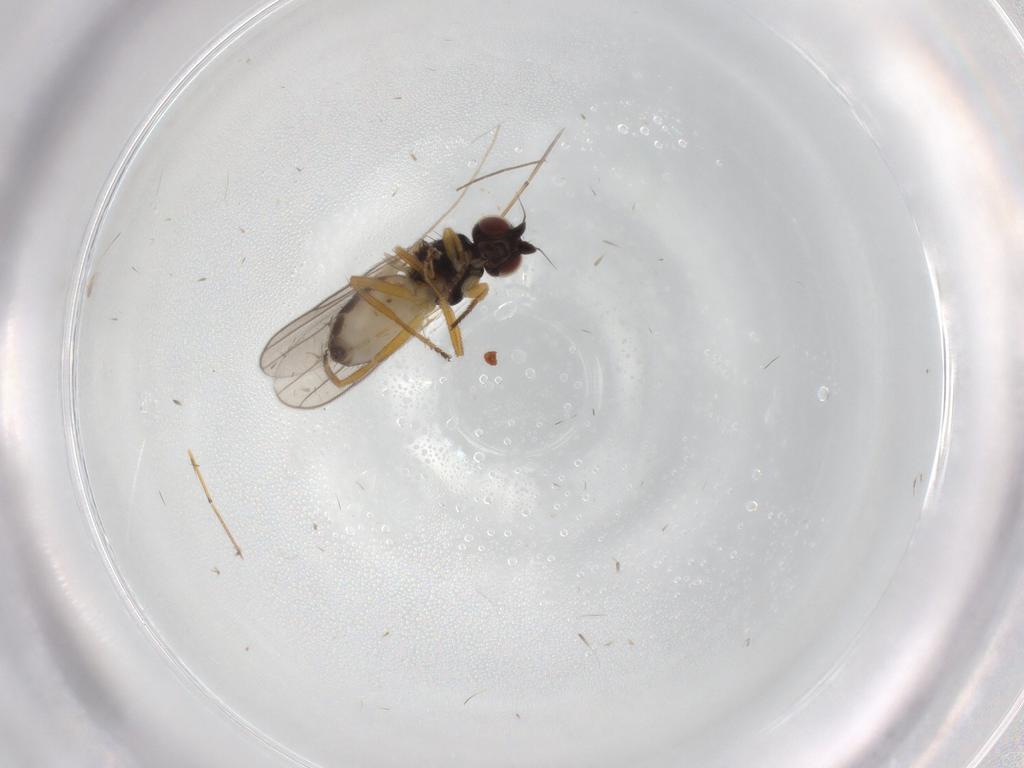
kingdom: Animalia
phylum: Arthropoda
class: Insecta
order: Diptera
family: Chloropidae
